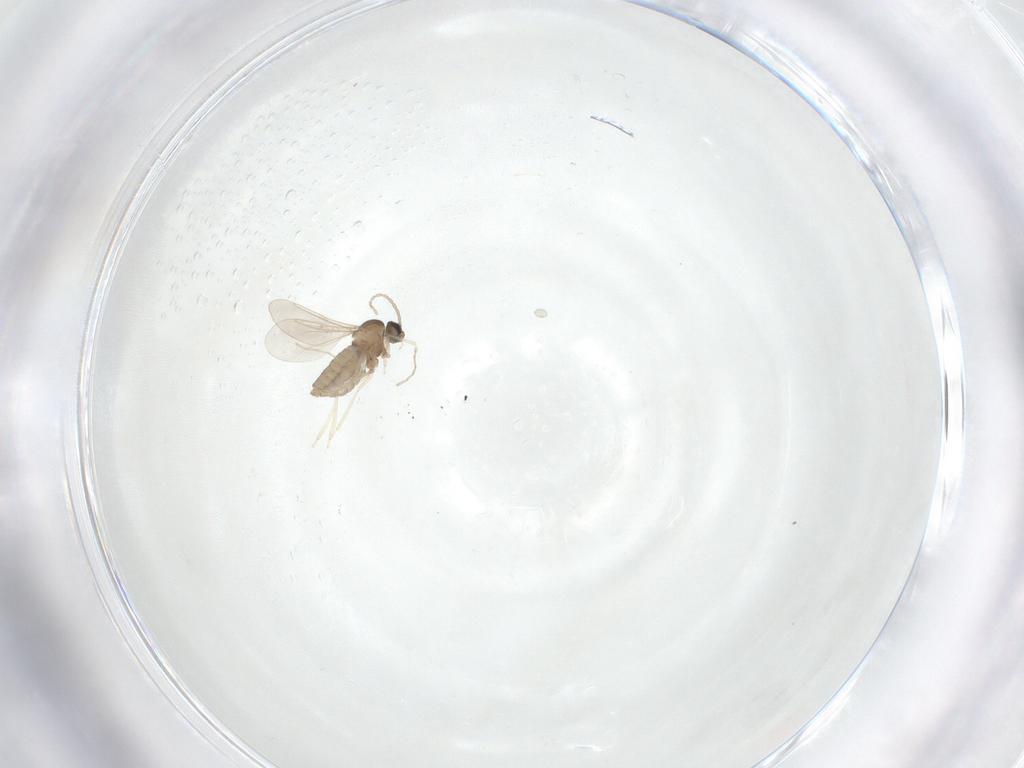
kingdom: Animalia
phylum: Arthropoda
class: Insecta
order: Diptera
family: Cecidomyiidae
